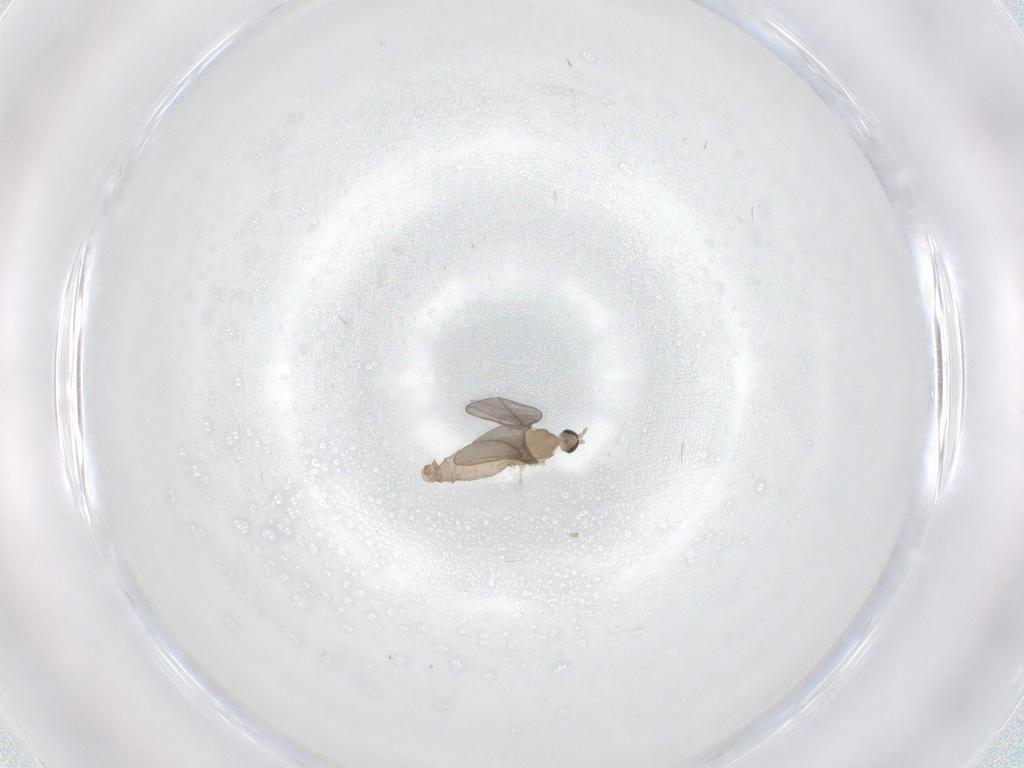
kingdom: Animalia
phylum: Arthropoda
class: Insecta
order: Diptera
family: Cecidomyiidae
